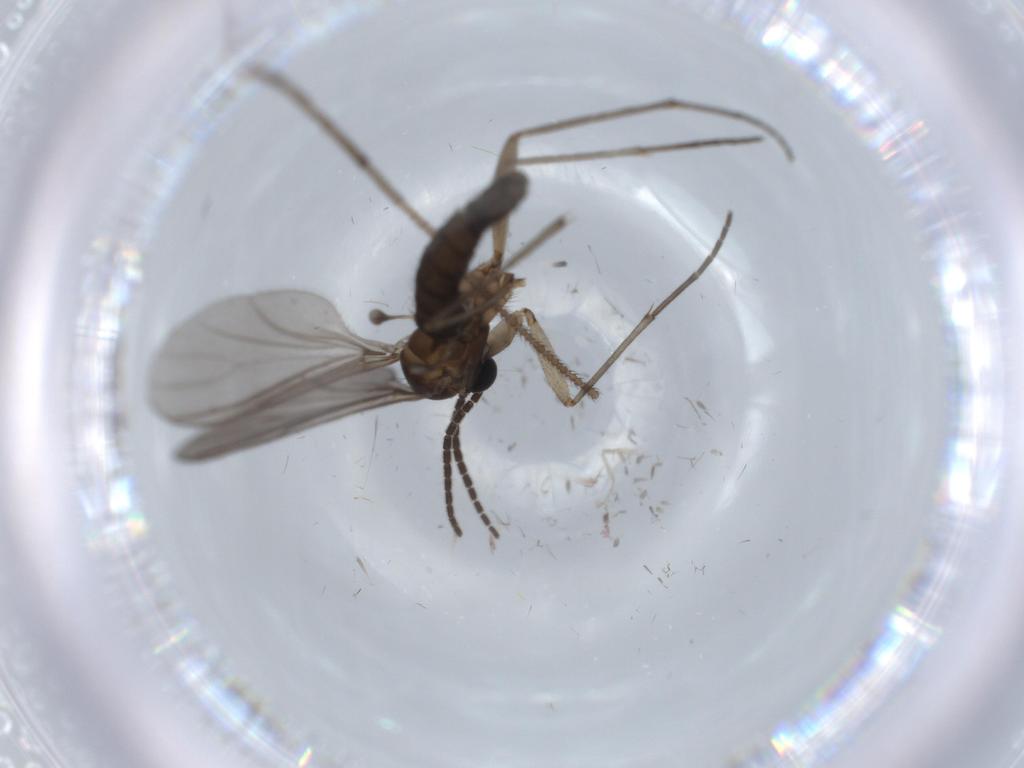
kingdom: Animalia
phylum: Arthropoda
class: Insecta
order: Diptera
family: Sciaridae
